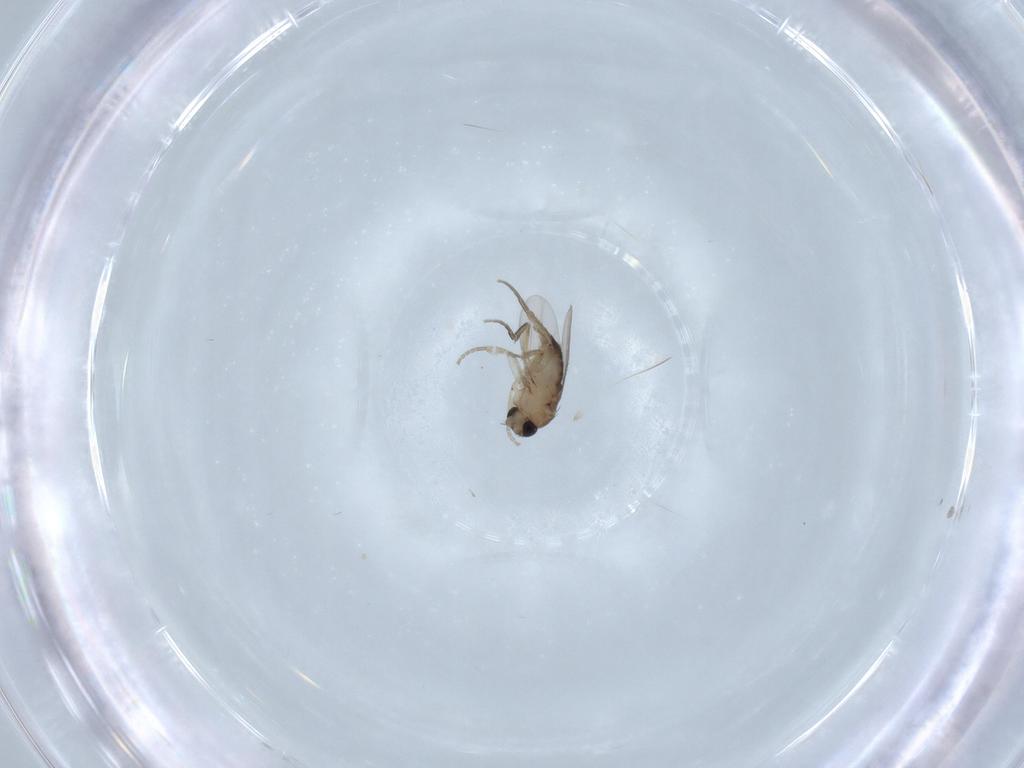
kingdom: Animalia
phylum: Arthropoda
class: Insecta
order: Diptera
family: Phoridae
